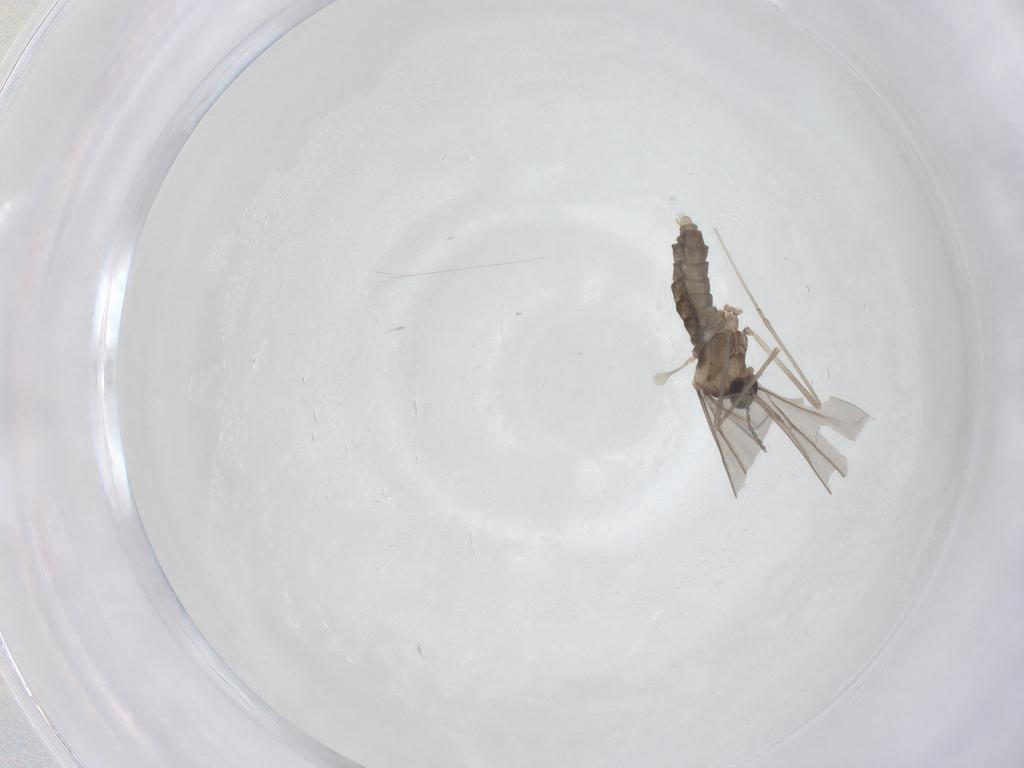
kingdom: Animalia
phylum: Arthropoda
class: Insecta
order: Diptera
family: Cecidomyiidae
